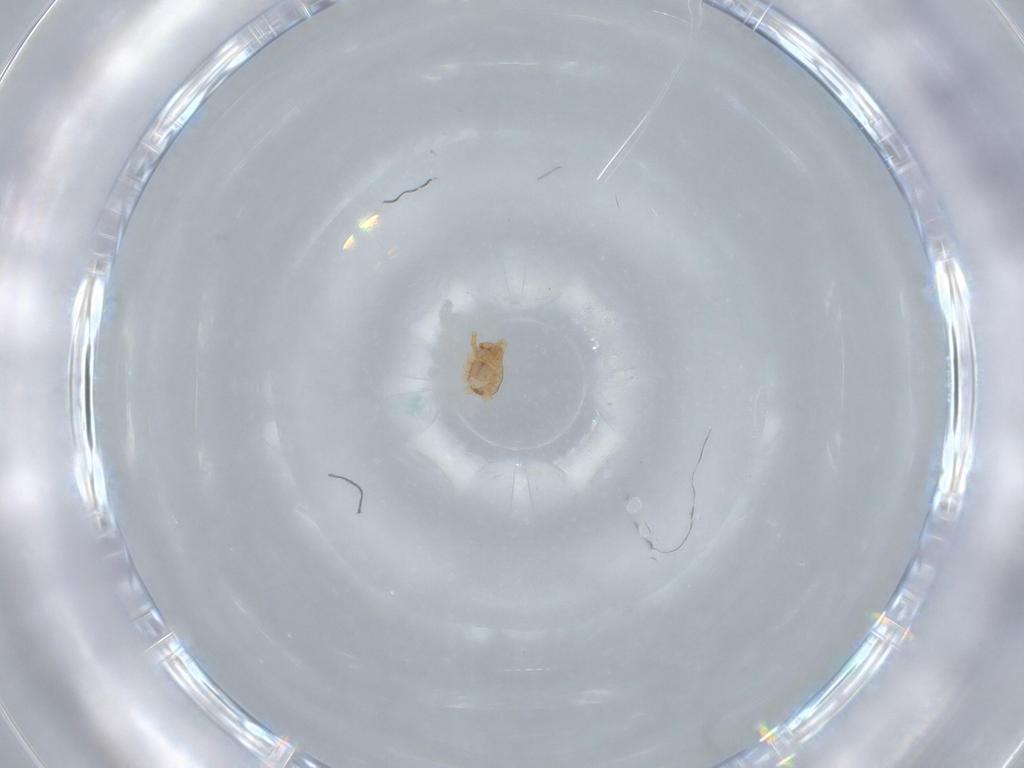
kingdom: Animalia
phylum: Arthropoda
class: Arachnida
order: Araneae
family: Ochyroceratidae
